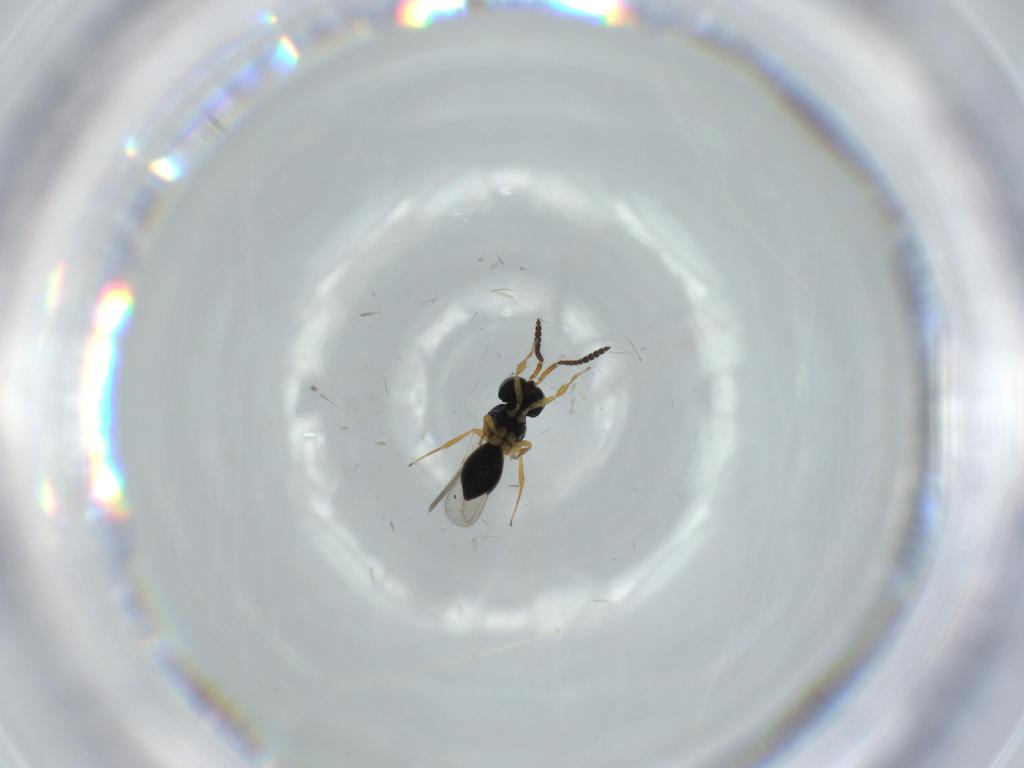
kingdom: Animalia
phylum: Arthropoda
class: Insecta
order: Hymenoptera
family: Scelionidae
